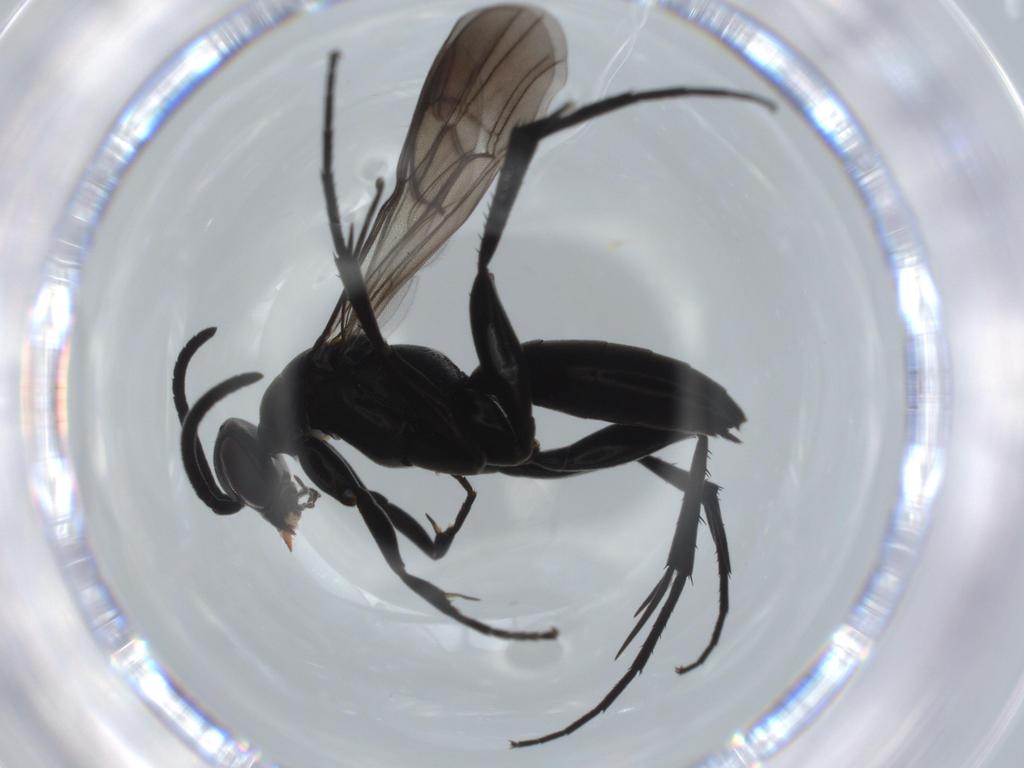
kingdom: Animalia
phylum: Arthropoda
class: Insecta
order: Hymenoptera
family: Pompilidae
